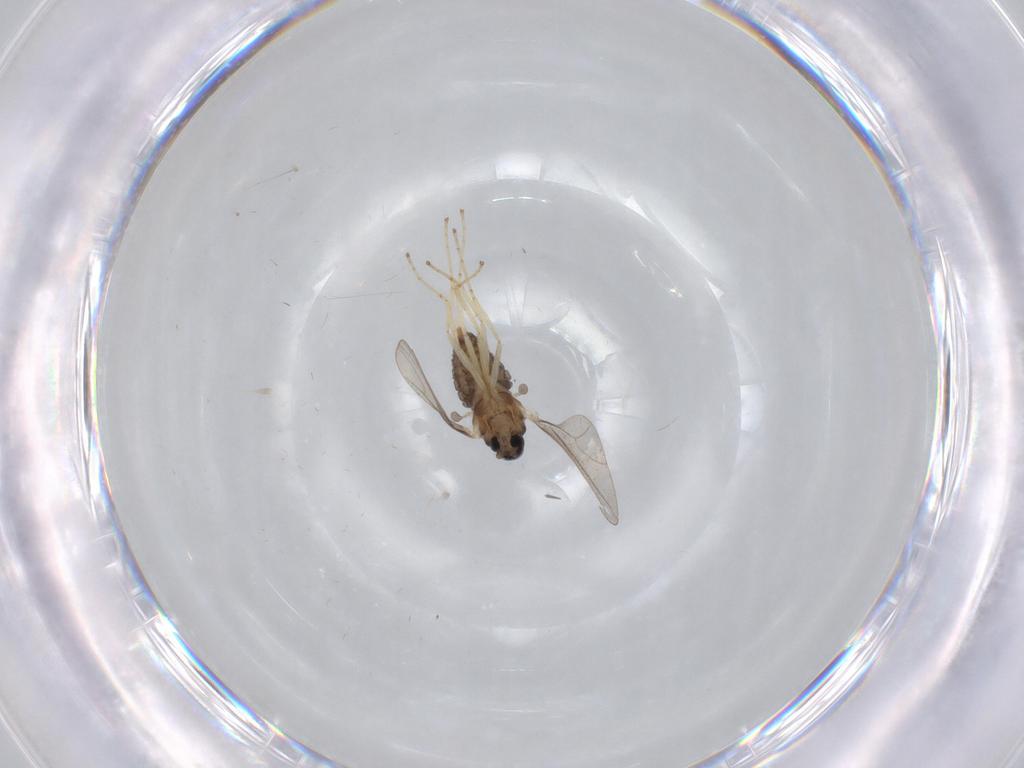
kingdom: Animalia
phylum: Arthropoda
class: Insecta
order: Diptera
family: Cecidomyiidae
